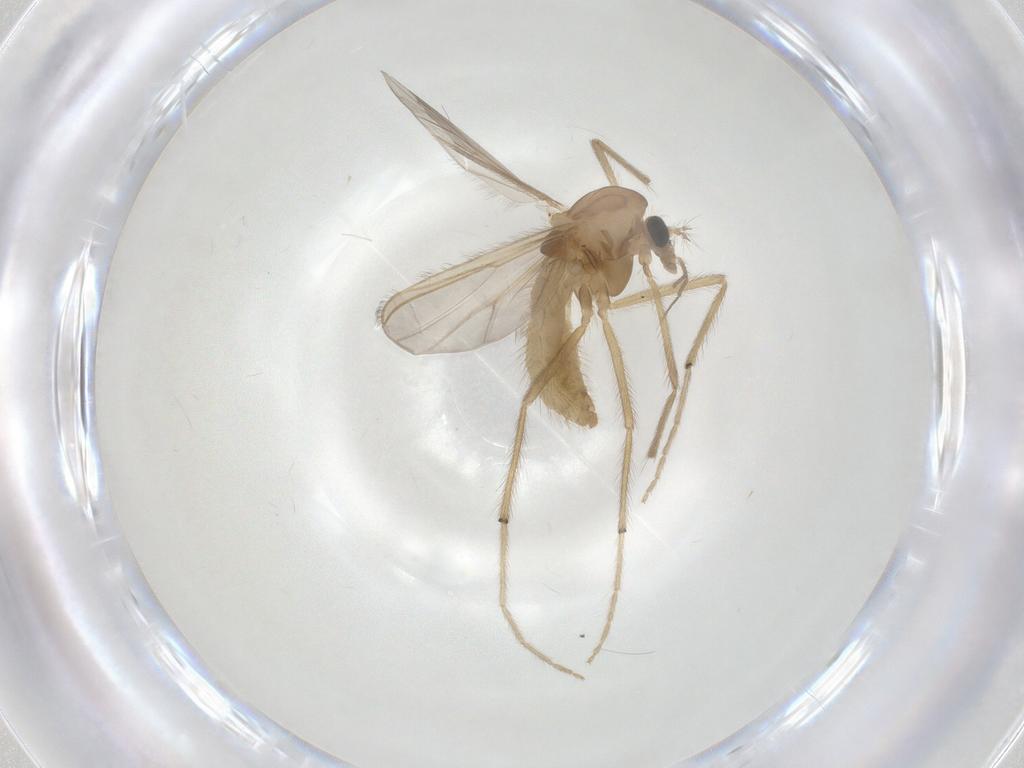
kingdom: Animalia
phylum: Arthropoda
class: Insecta
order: Diptera
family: Chironomidae
